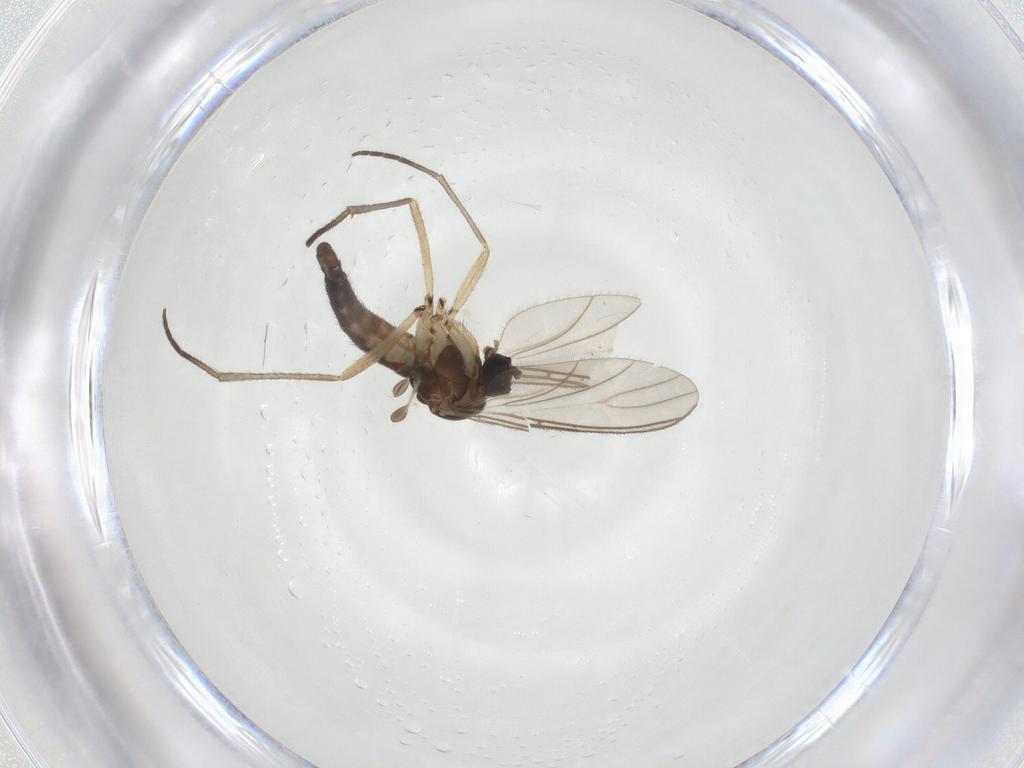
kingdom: Animalia
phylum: Arthropoda
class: Insecta
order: Diptera
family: Sciaridae
